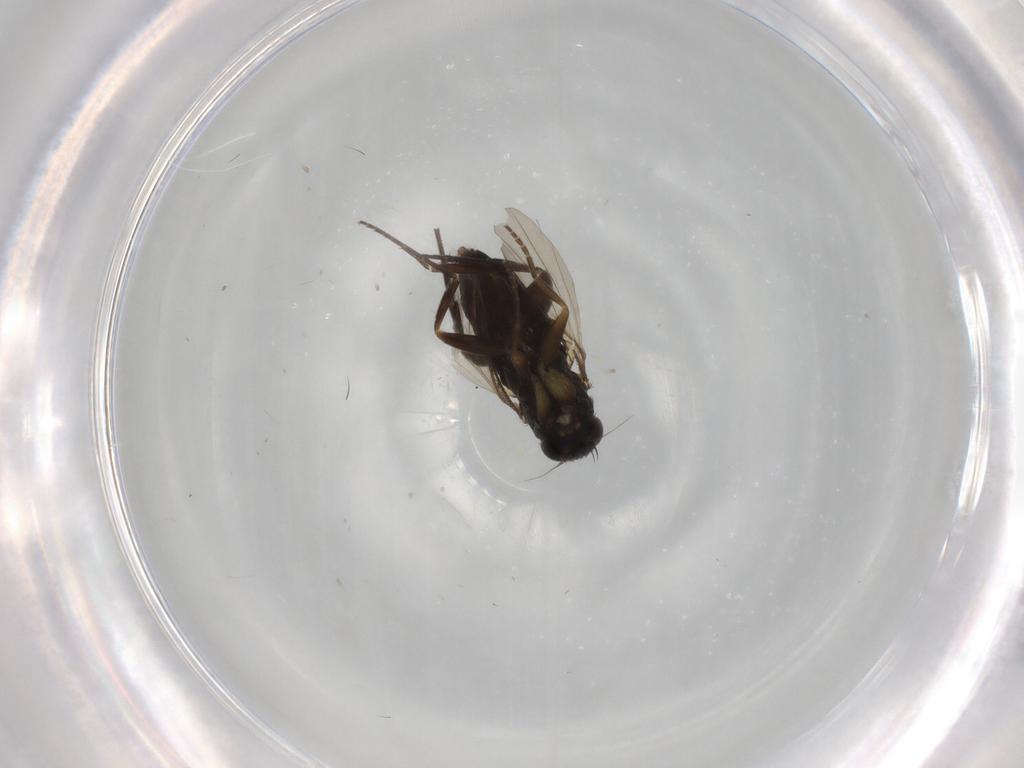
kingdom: Animalia
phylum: Arthropoda
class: Insecta
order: Diptera
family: Phoridae
